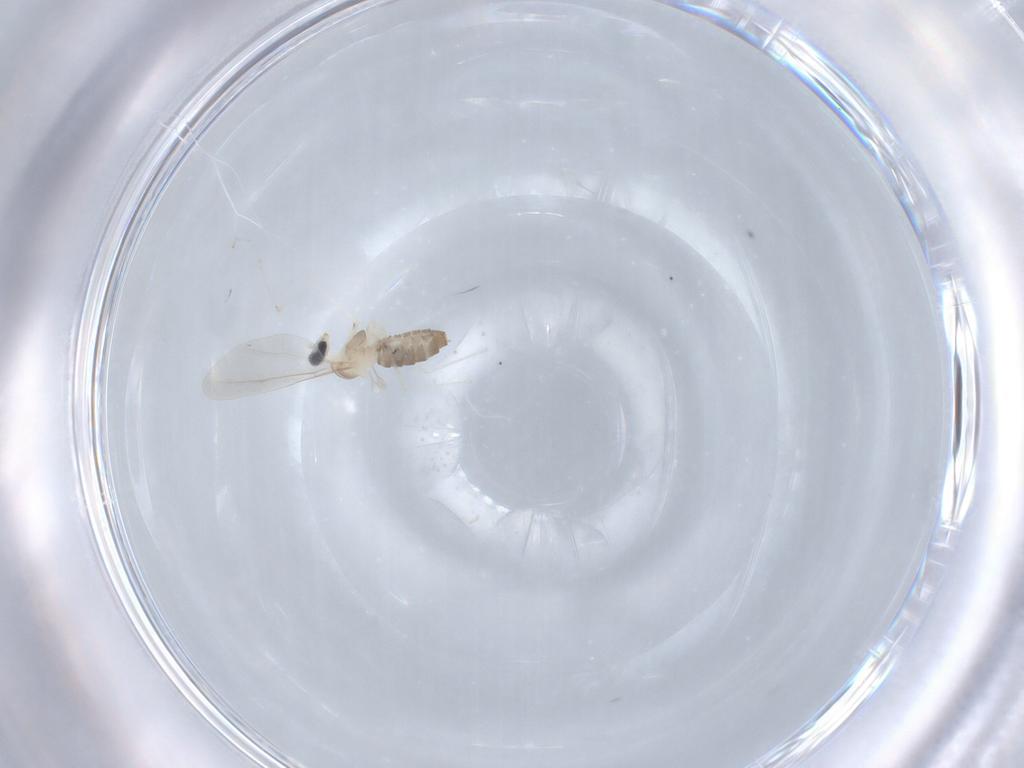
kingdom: Animalia
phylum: Arthropoda
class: Insecta
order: Diptera
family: Cecidomyiidae
